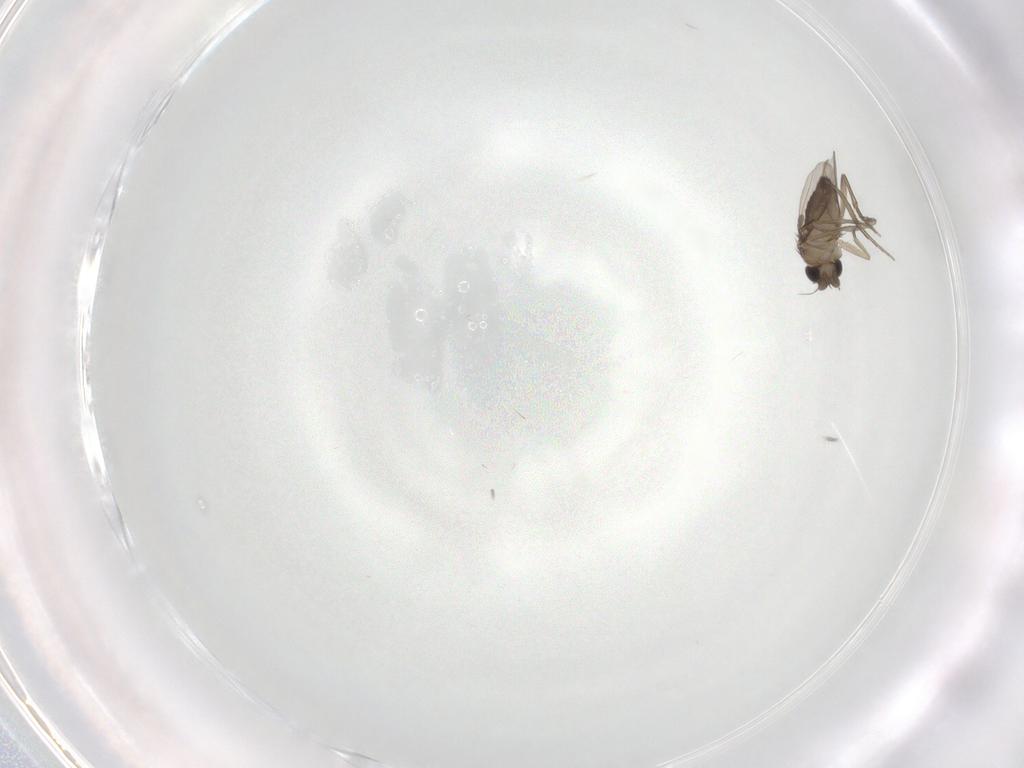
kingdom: Animalia
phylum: Arthropoda
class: Insecta
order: Diptera
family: Phoridae
